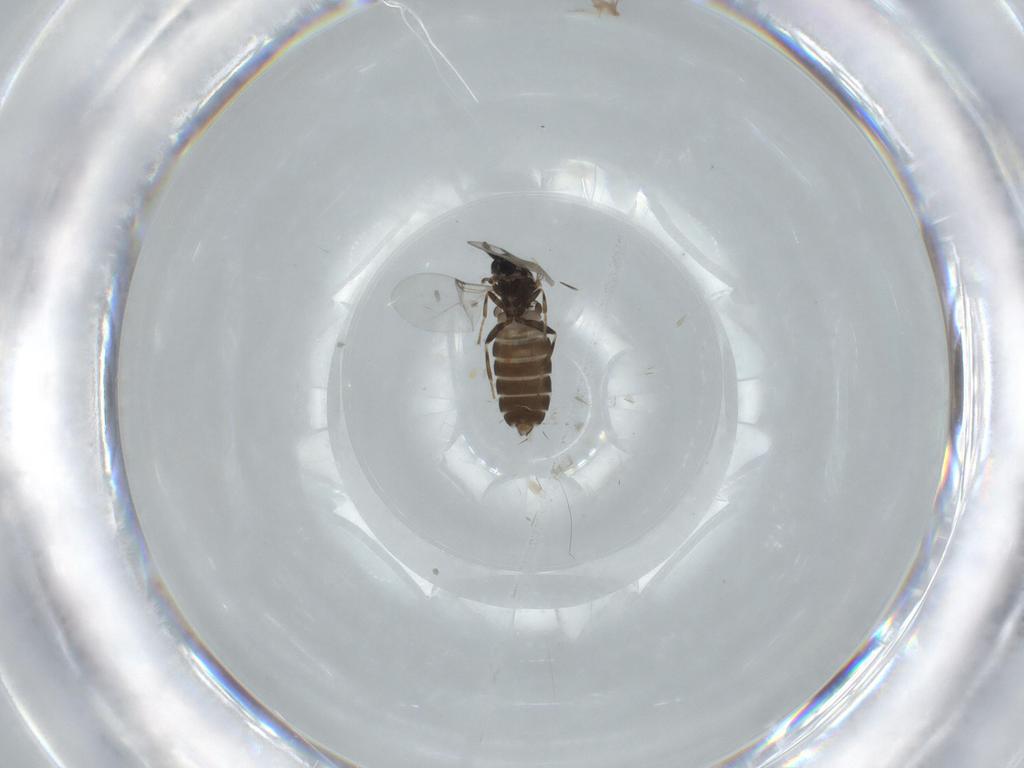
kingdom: Animalia
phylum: Arthropoda
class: Insecta
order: Diptera
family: Scatopsidae
